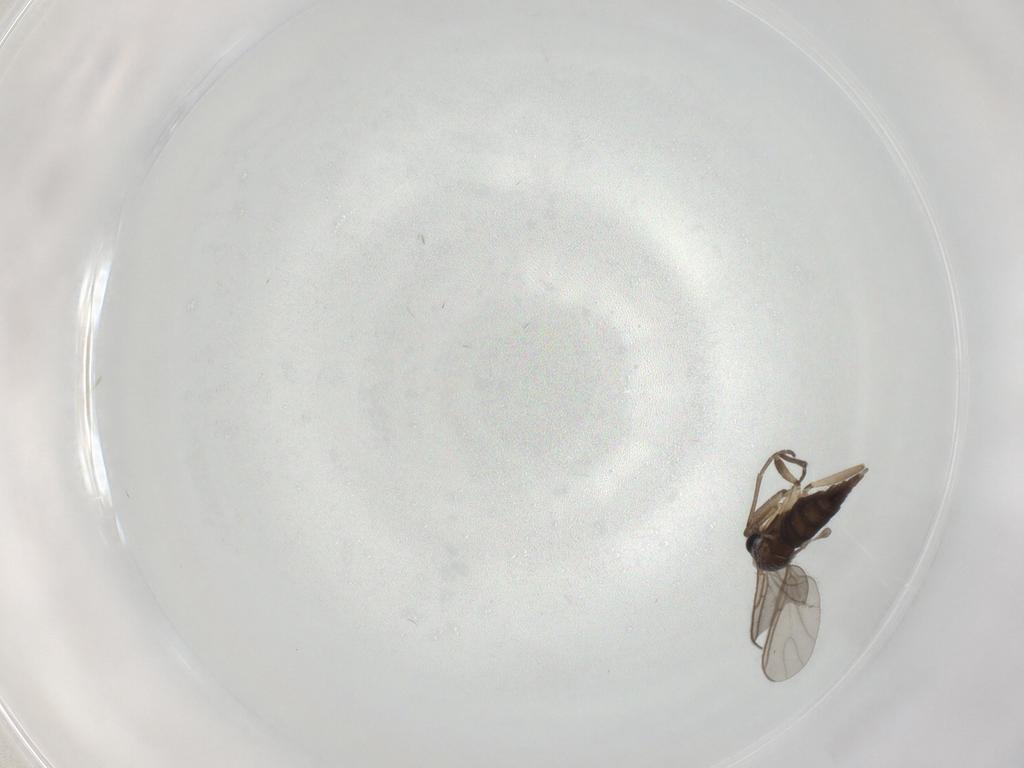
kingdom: Animalia
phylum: Arthropoda
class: Insecta
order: Diptera
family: Sciaridae
